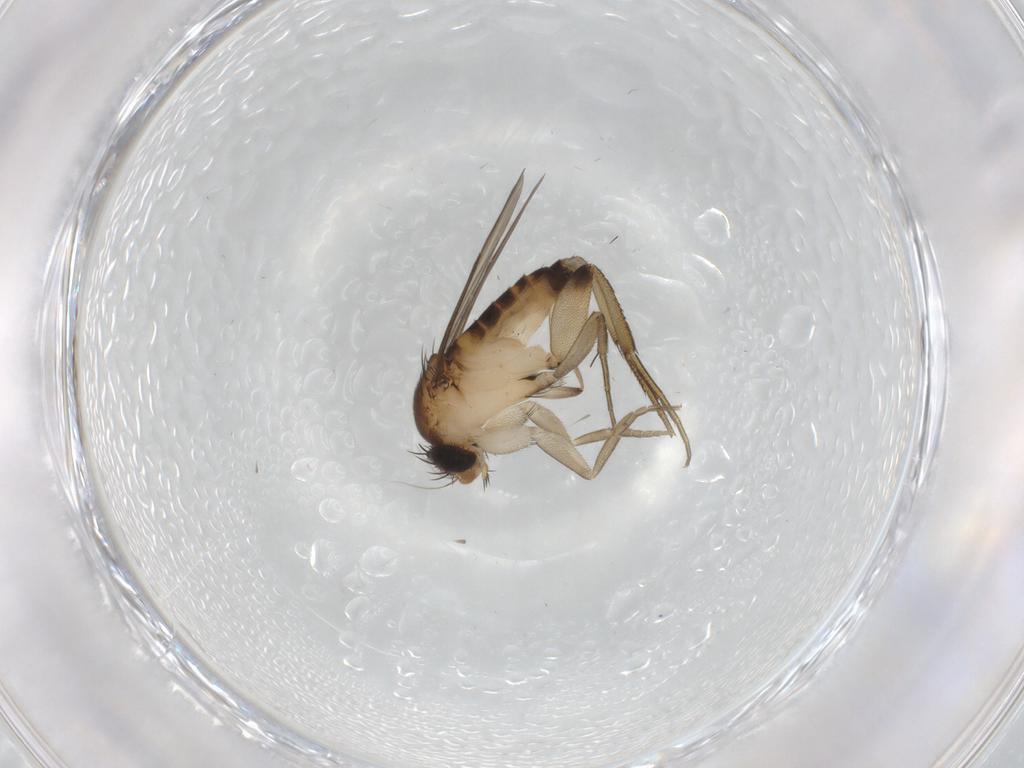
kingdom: Animalia
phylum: Arthropoda
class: Insecta
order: Diptera
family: Phoridae
